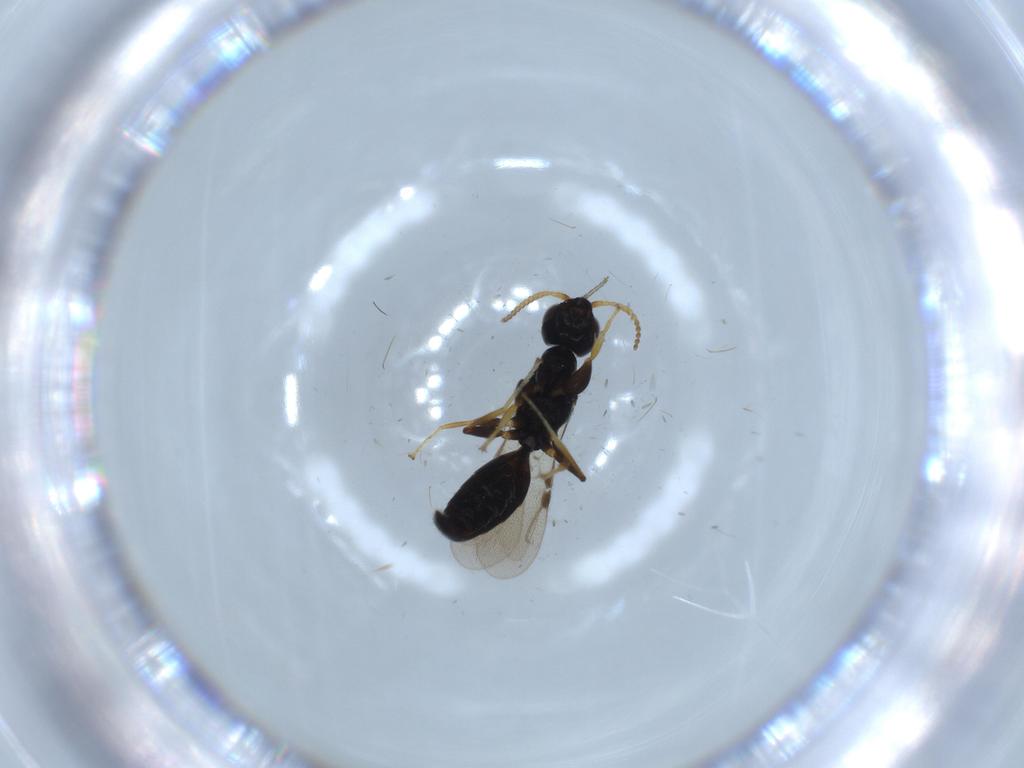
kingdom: Animalia
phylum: Arthropoda
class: Insecta
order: Hymenoptera
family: Bethylidae
